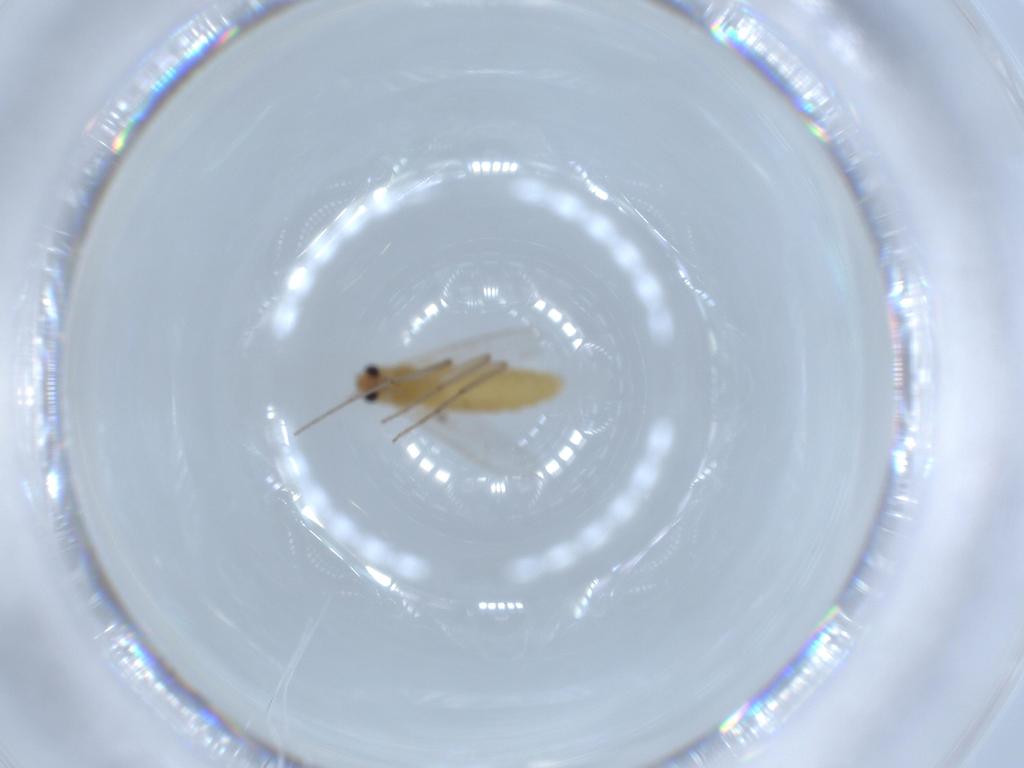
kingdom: Animalia
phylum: Arthropoda
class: Insecta
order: Diptera
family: Chironomidae
